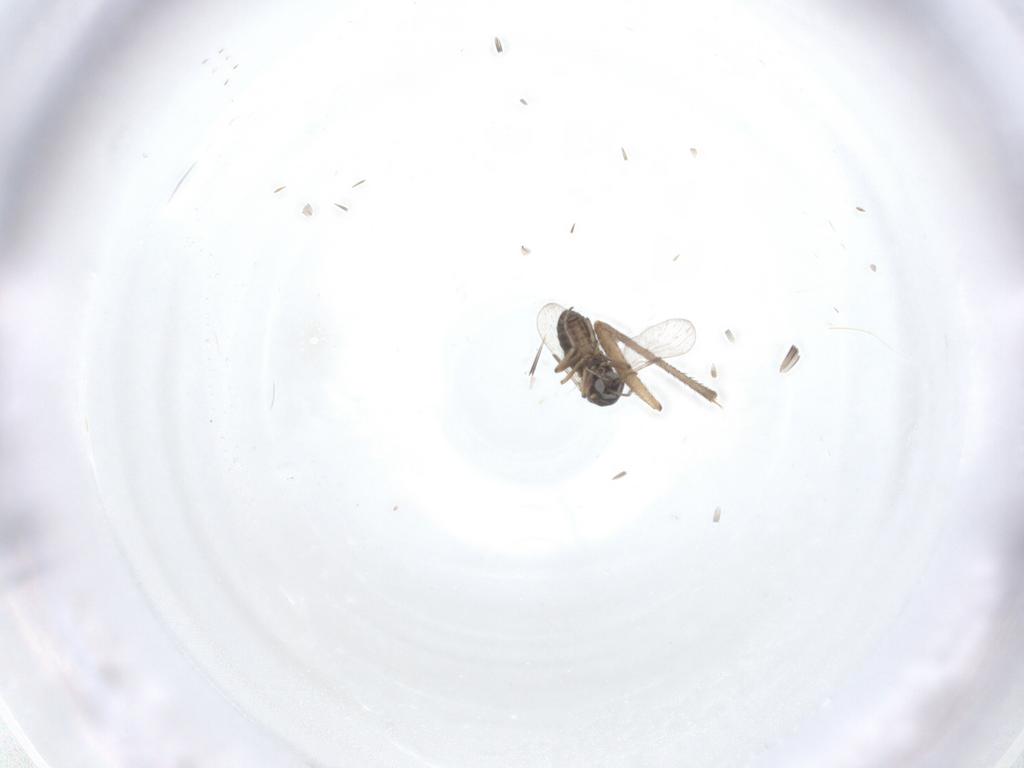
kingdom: Animalia
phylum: Arthropoda
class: Insecta
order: Diptera
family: Ceratopogonidae
